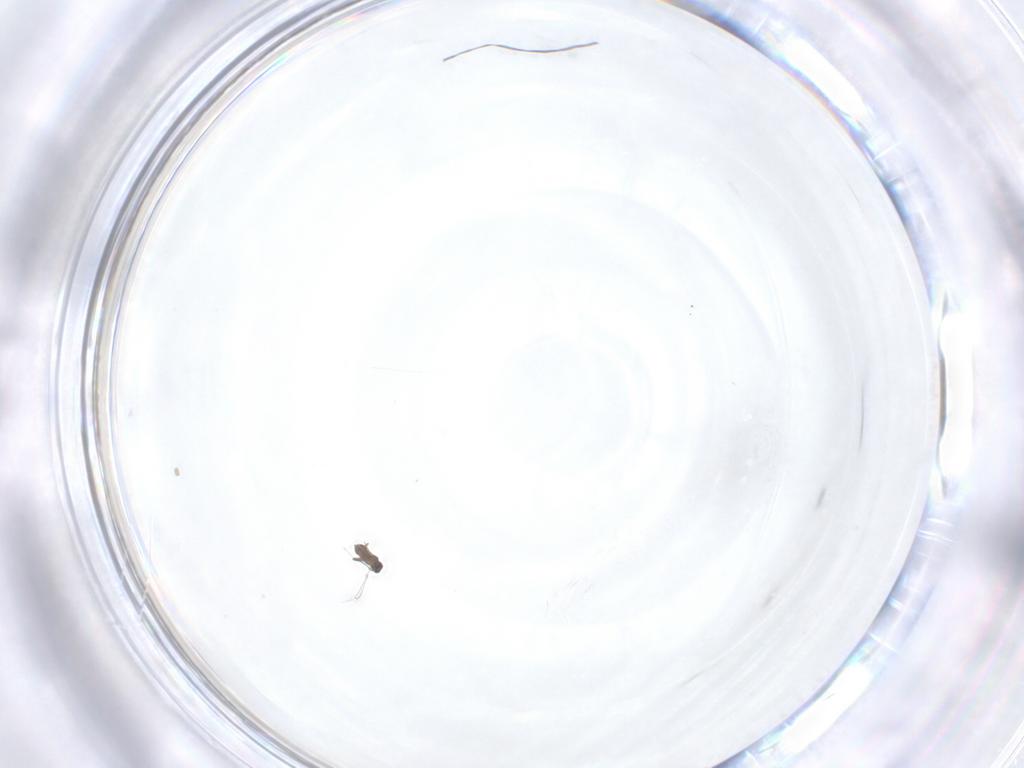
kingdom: Animalia
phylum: Arthropoda
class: Insecta
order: Hymenoptera
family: Mymaridae
